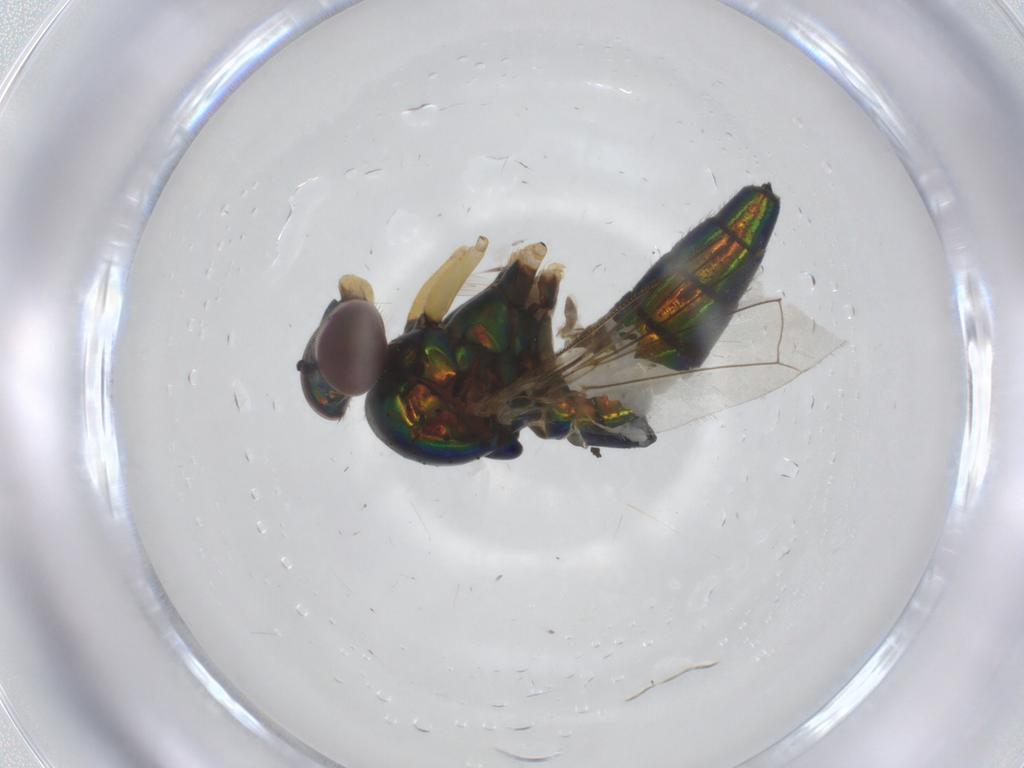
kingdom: Animalia
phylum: Arthropoda
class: Insecta
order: Diptera
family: Dolichopodidae
